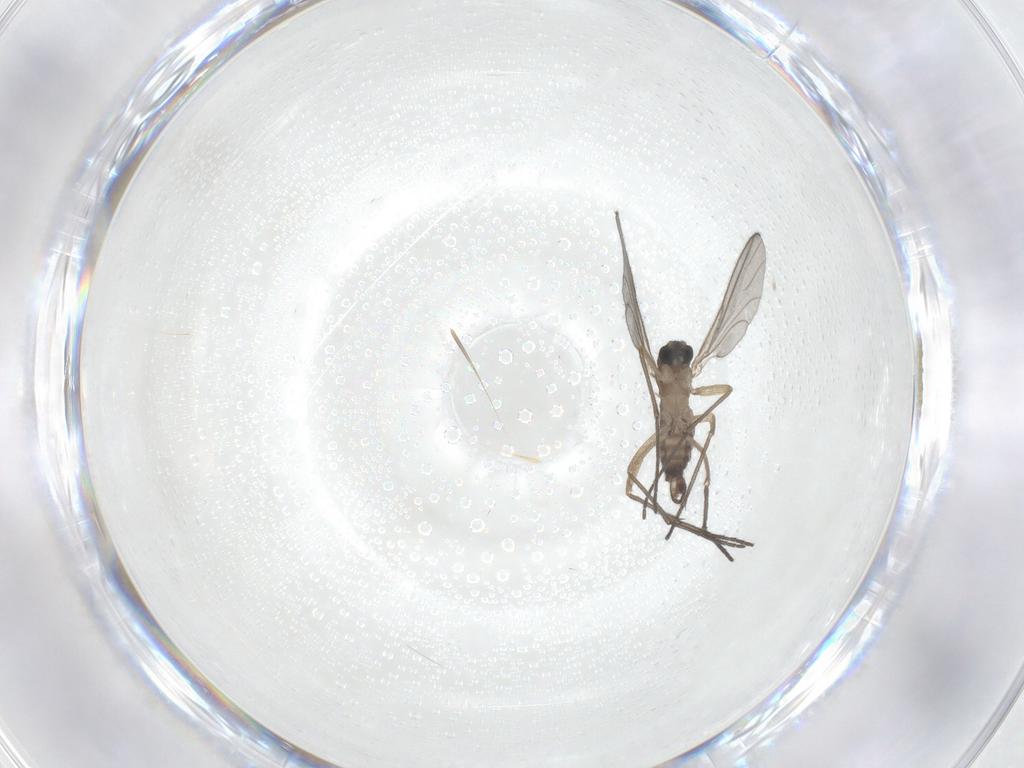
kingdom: Animalia
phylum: Arthropoda
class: Insecta
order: Diptera
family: Sciaridae
